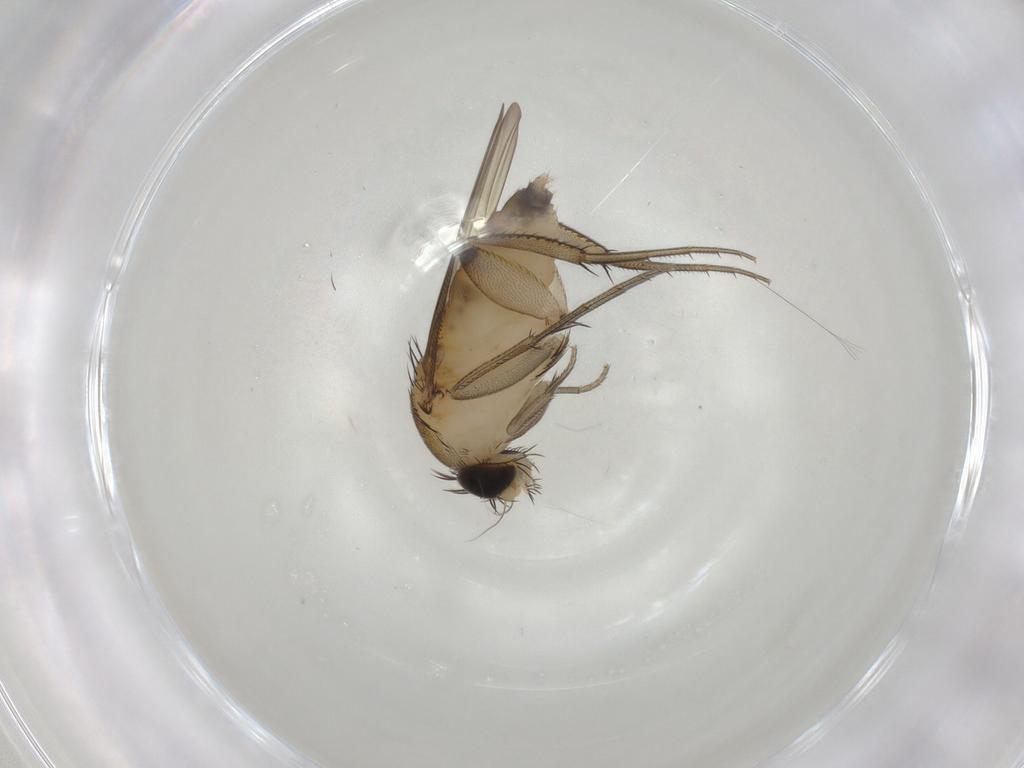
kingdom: Animalia
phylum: Arthropoda
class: Insecta
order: Diptera
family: Phoridae
